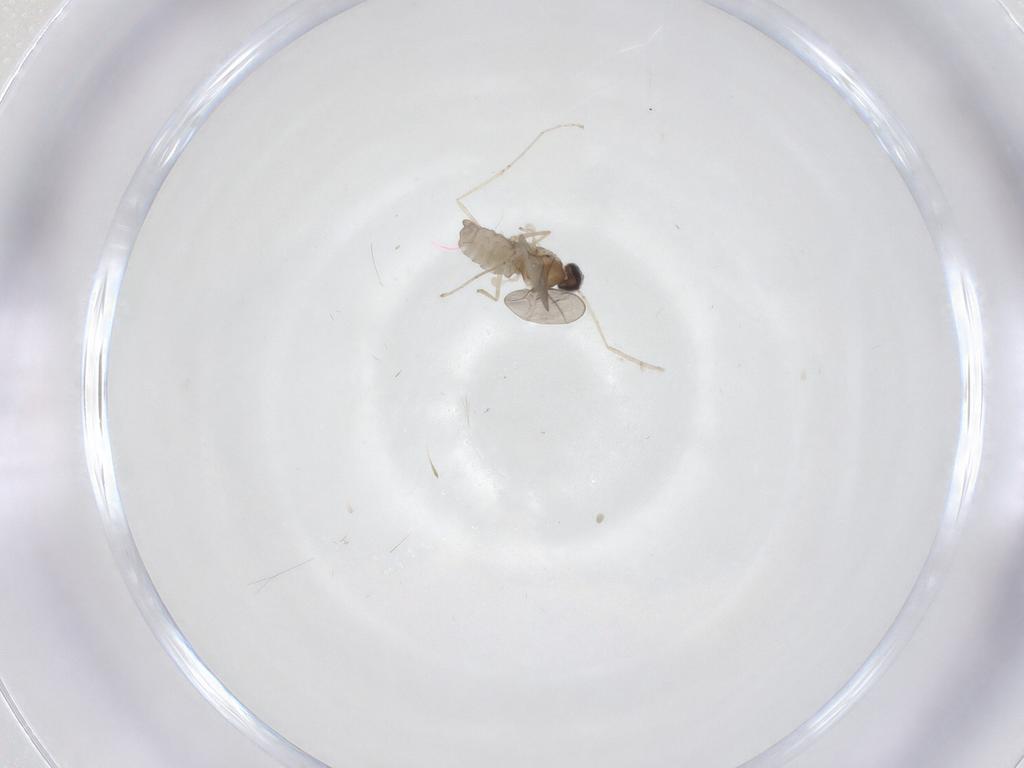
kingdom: Animalia
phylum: Arthropoda
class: Insecta
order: Diptera
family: Cecidomyiidae
